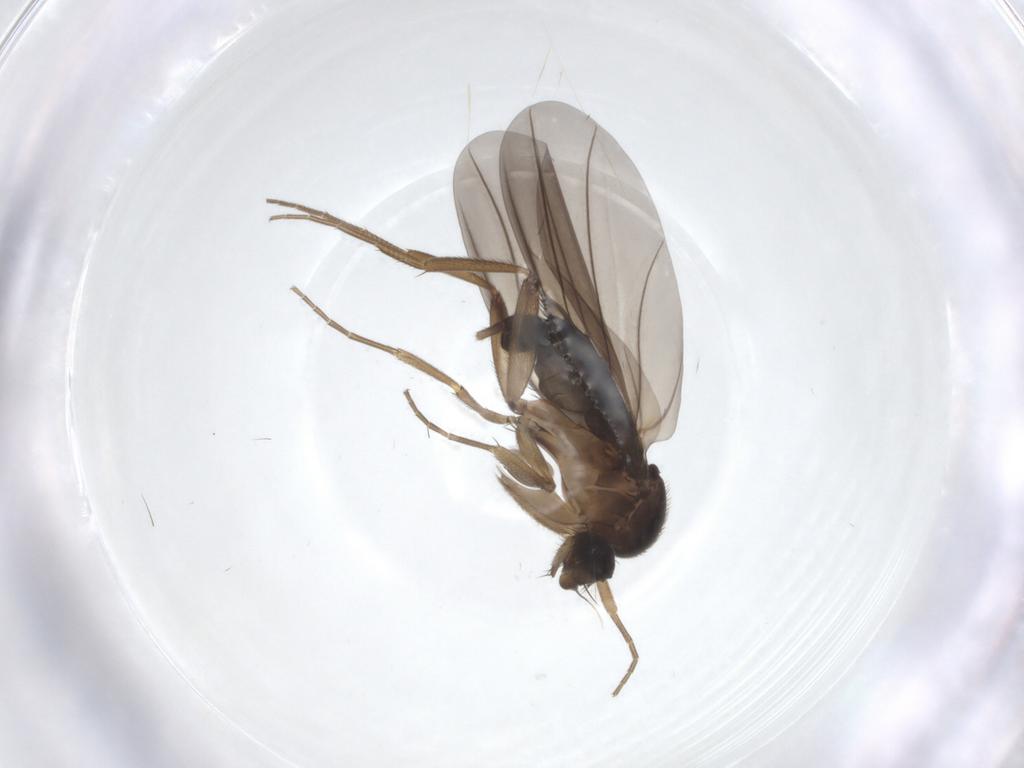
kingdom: Animalia
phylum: Arthropoda
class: Insecta
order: Diptera
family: Phoridae
